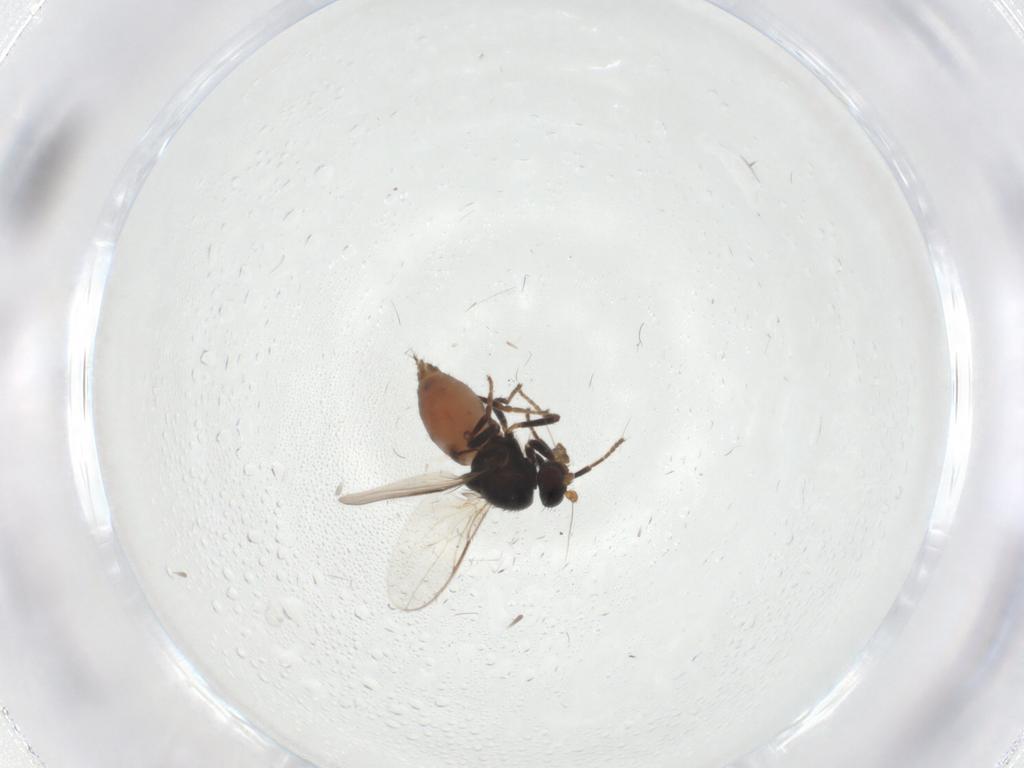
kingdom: Animalia
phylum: Arthropoda
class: Insecta
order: Diptera
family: Sphaeroceridae
